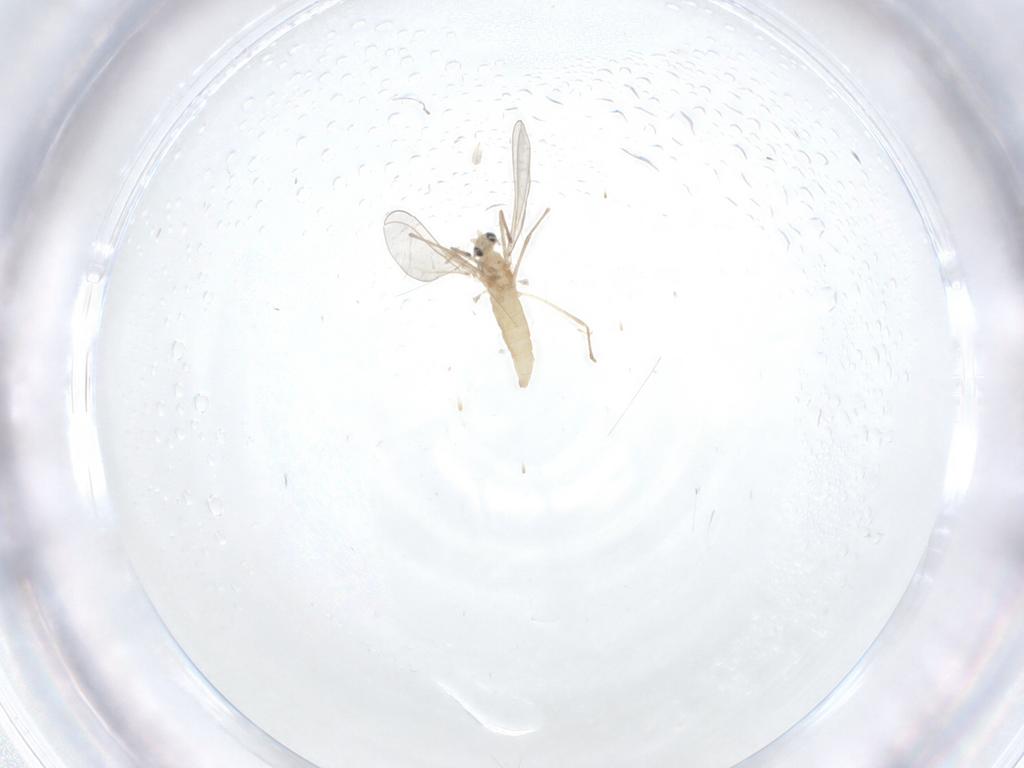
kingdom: Animalia
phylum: Arthropoda
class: Insecta
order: Diptera
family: Cecidomyiidae
